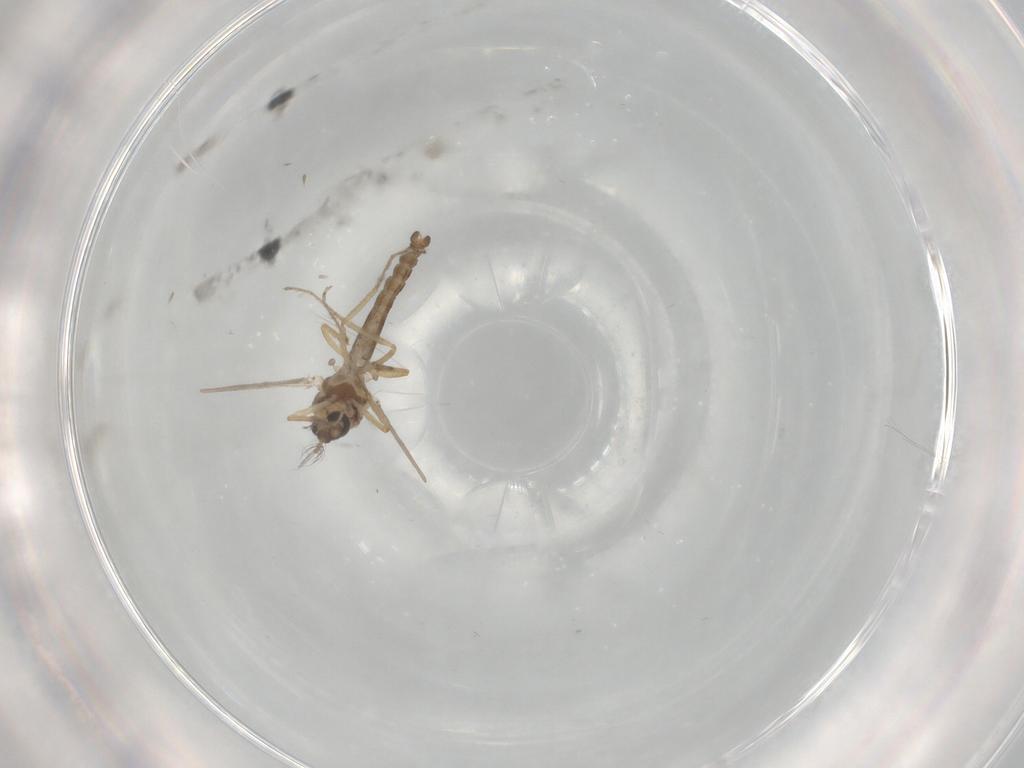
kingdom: Animalia
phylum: Arthropoda
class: Insecta
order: Diptera
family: Ceratopogonidae
